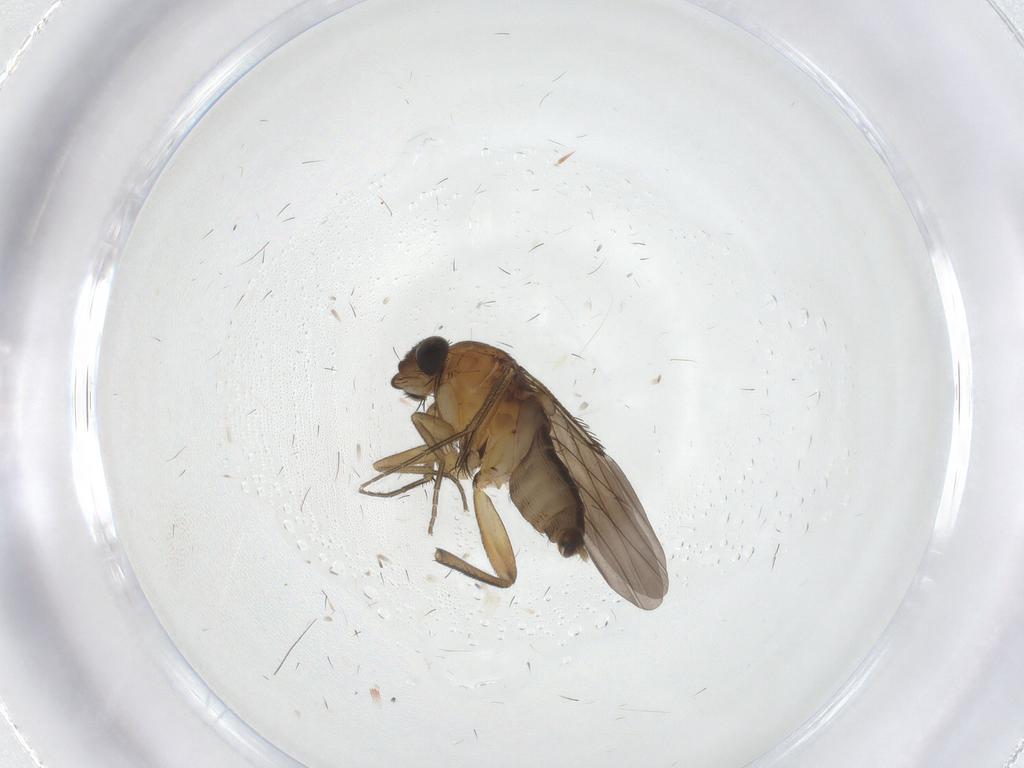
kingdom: Animalia
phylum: Arthropoda
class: Insecta
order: Diptera
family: Phoridae
